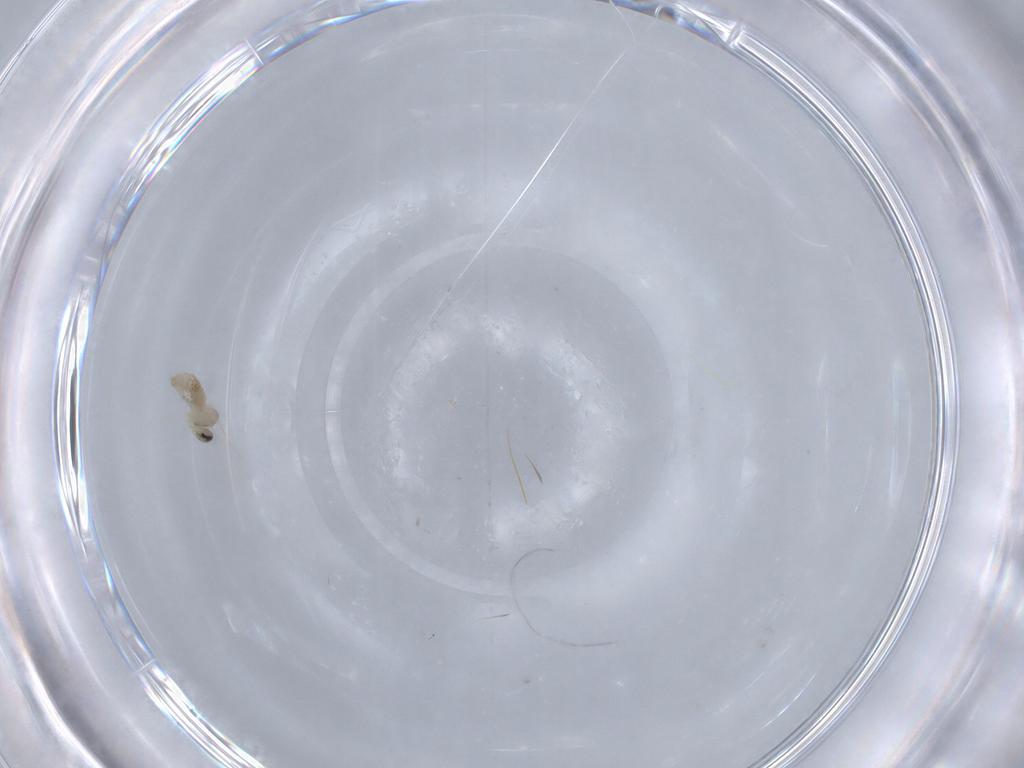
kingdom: Animalia
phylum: Arthropoda
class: Insecta
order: Diptera
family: Cecidomyiidae
